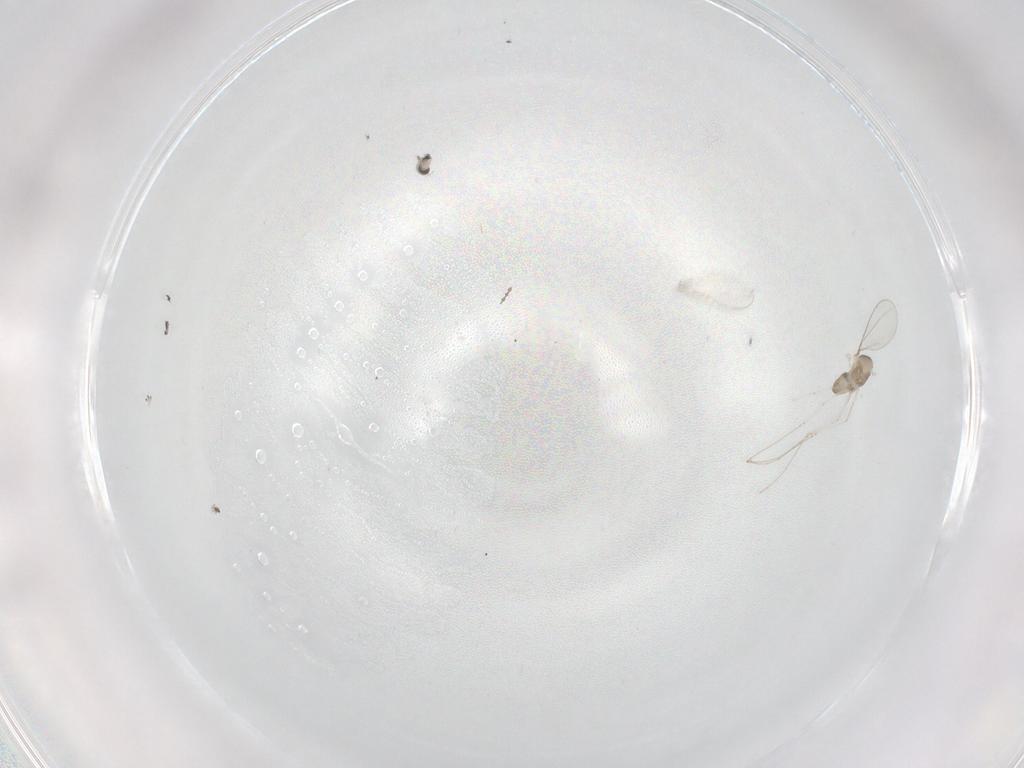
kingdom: Animalia
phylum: Arthropoda
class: Insecta
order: Diptera
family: Cecidomyiidae
